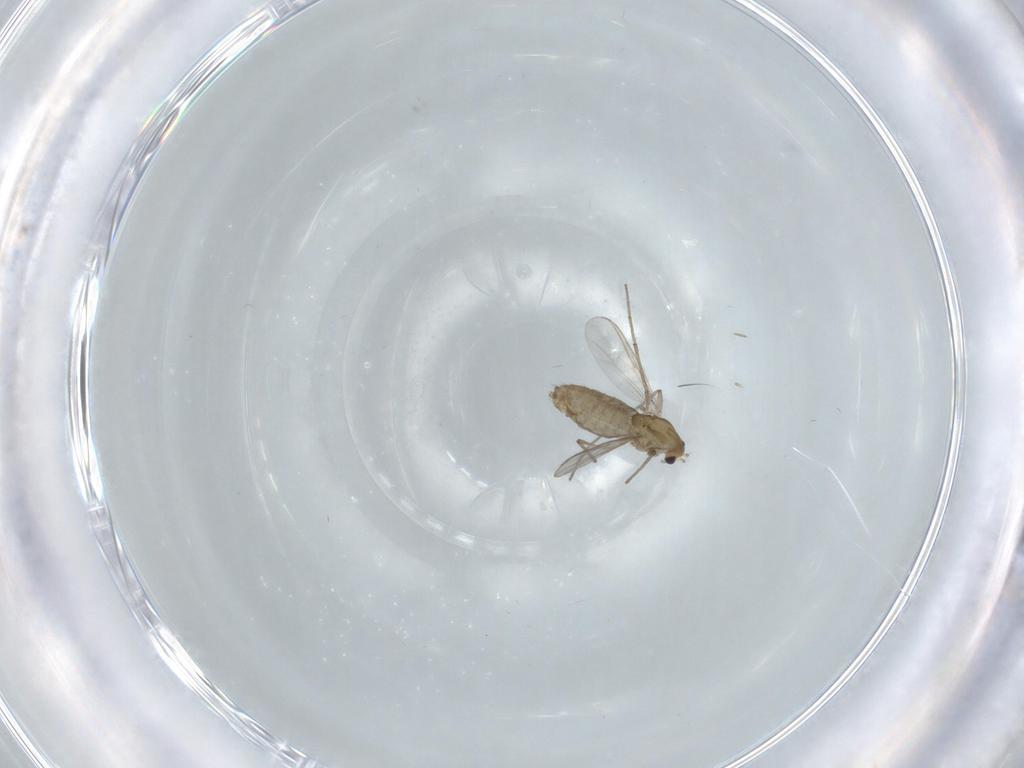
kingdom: Animalia
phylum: Arthropoda
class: Insecta
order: Diptera
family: Chironomidae
